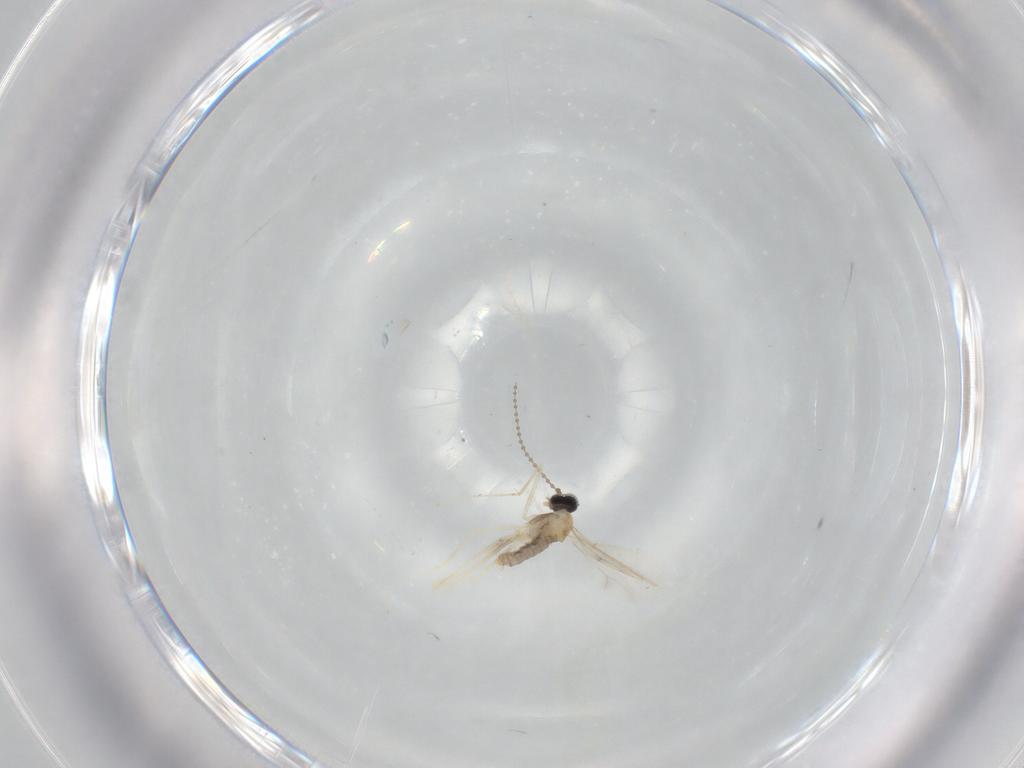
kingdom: Animalia
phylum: Arthropoda
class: Insecta
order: Diptera
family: Cecidomyiidae
